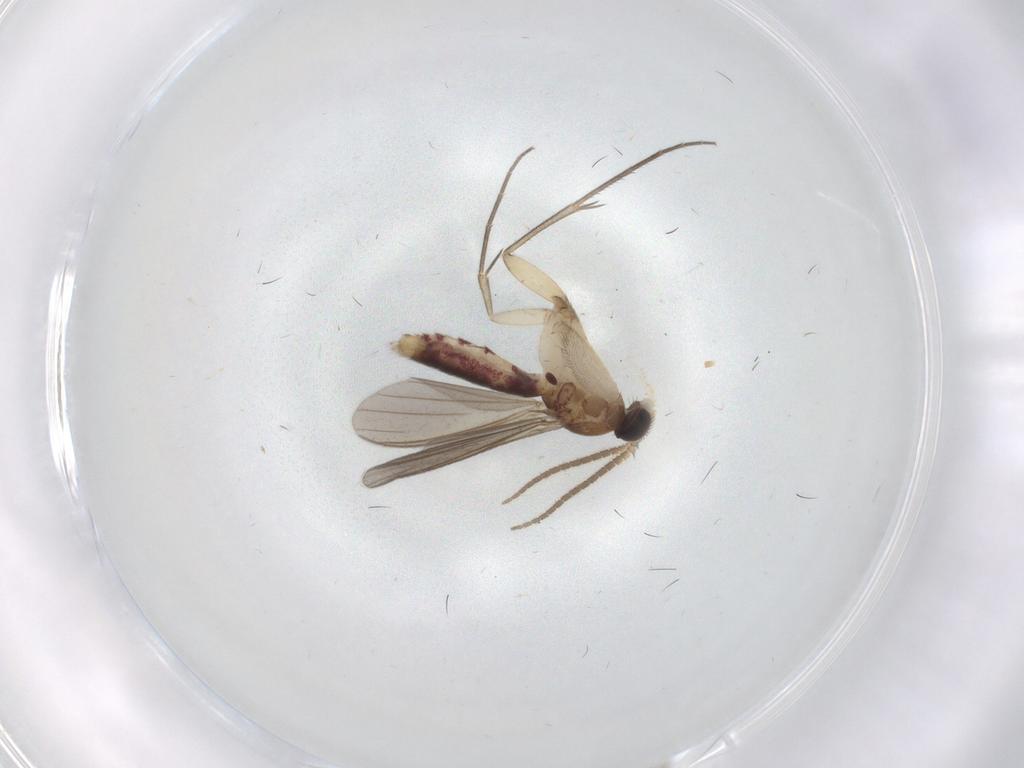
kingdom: Animalia
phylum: Arthropoda
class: Insecta
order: Diptera
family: Mycetophilidae
